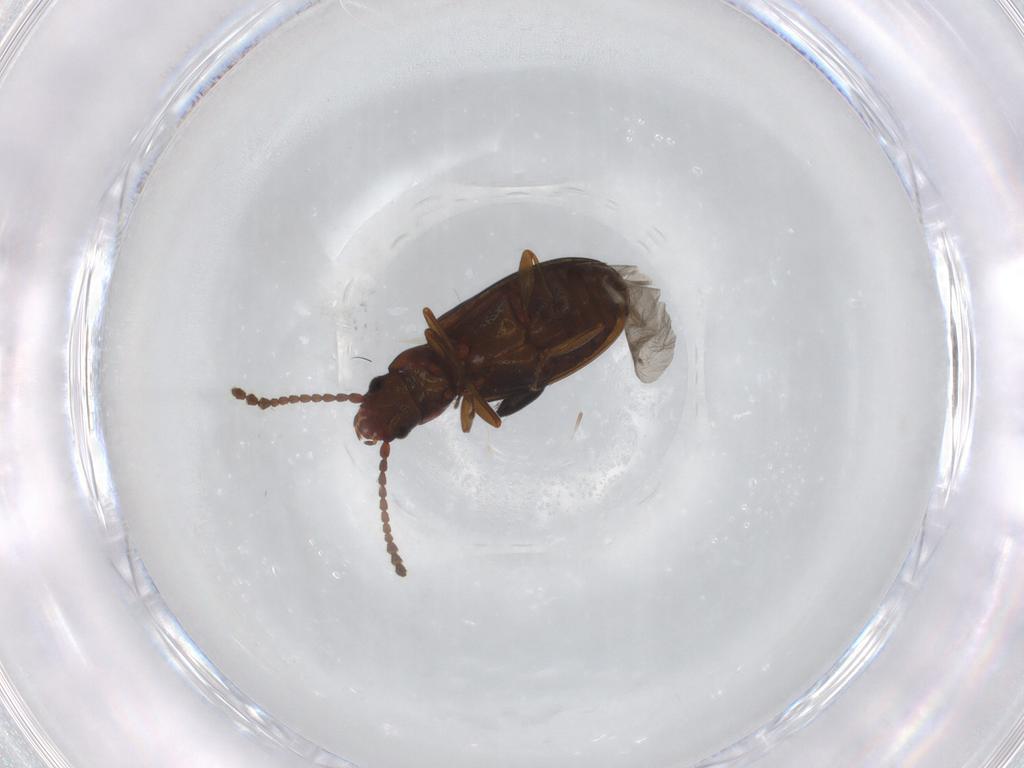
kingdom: Animalia
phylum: Arthropoda
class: Insecta
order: Coleoptera
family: Laemophloeidae
